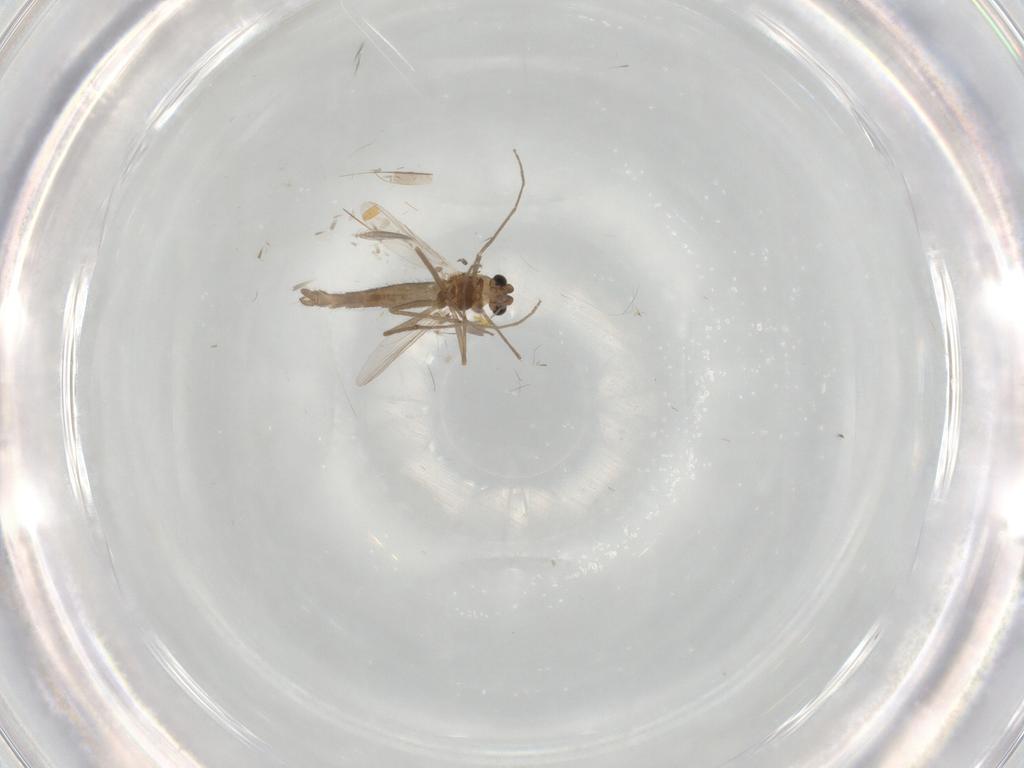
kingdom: Animalia
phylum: Arthropoda
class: Insecta
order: Diptera
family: Chironomidae
